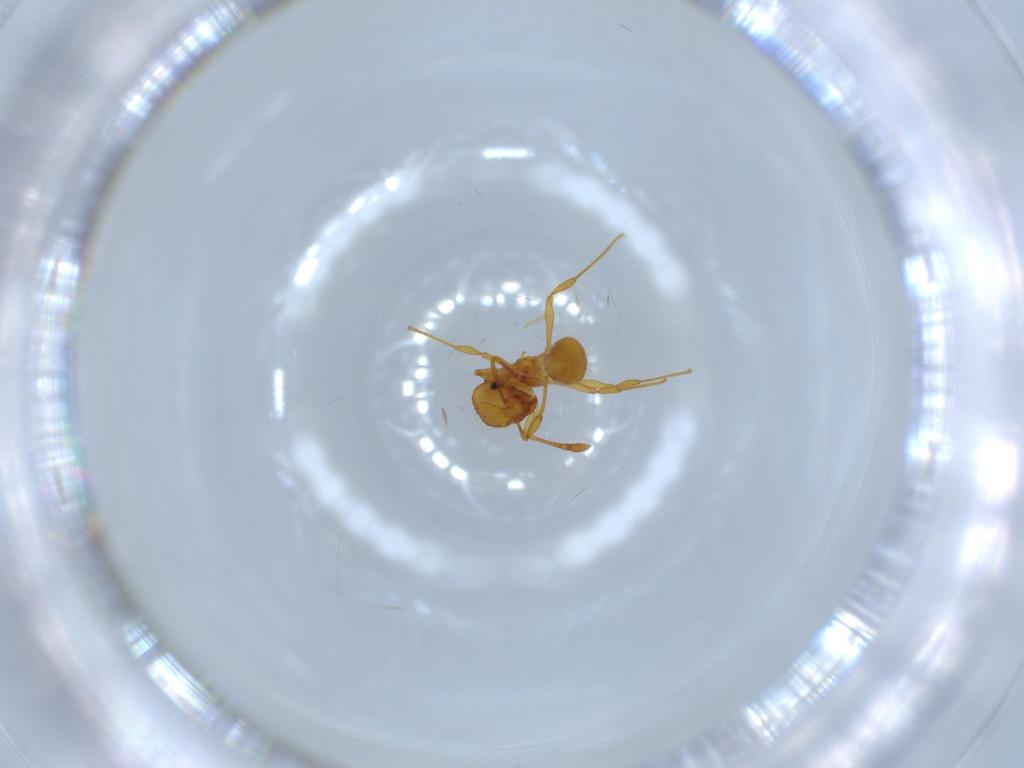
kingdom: Animalia
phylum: Arthropoda
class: Insecta
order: Hymenoptera
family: Formicidae
